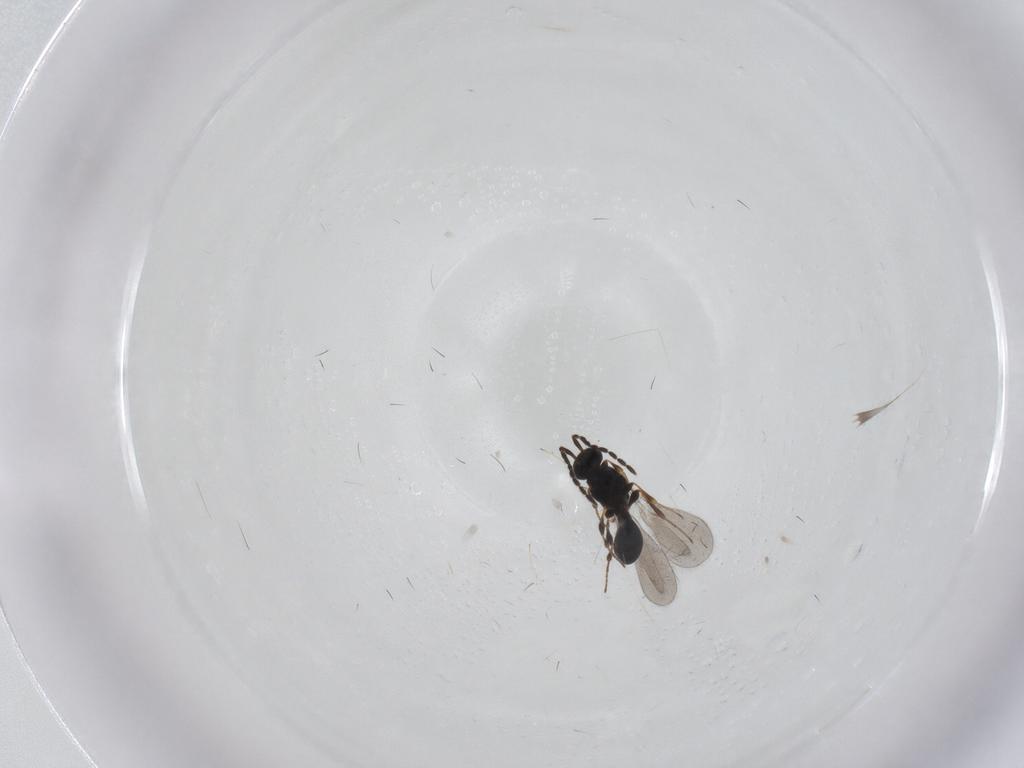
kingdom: Animalia
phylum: Arthropoda
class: Insecta
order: Hymenoptera
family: Platygastridae
